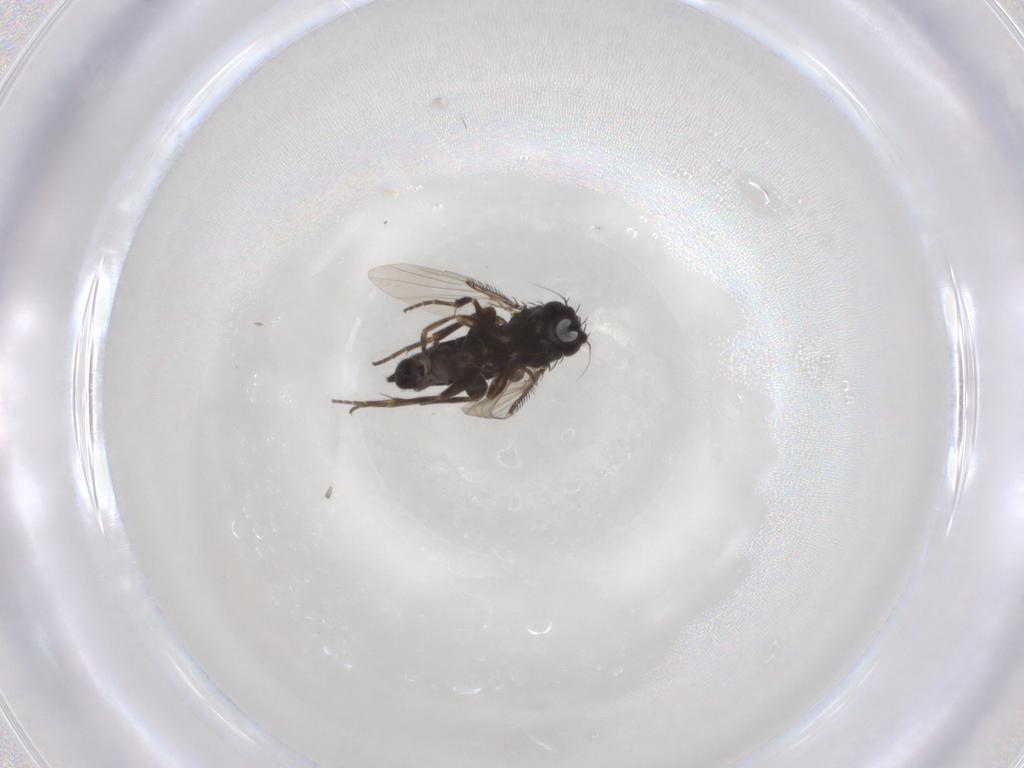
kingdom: Animalia
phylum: Arthropoda
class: Insecta
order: Diptera
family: Phoridae
